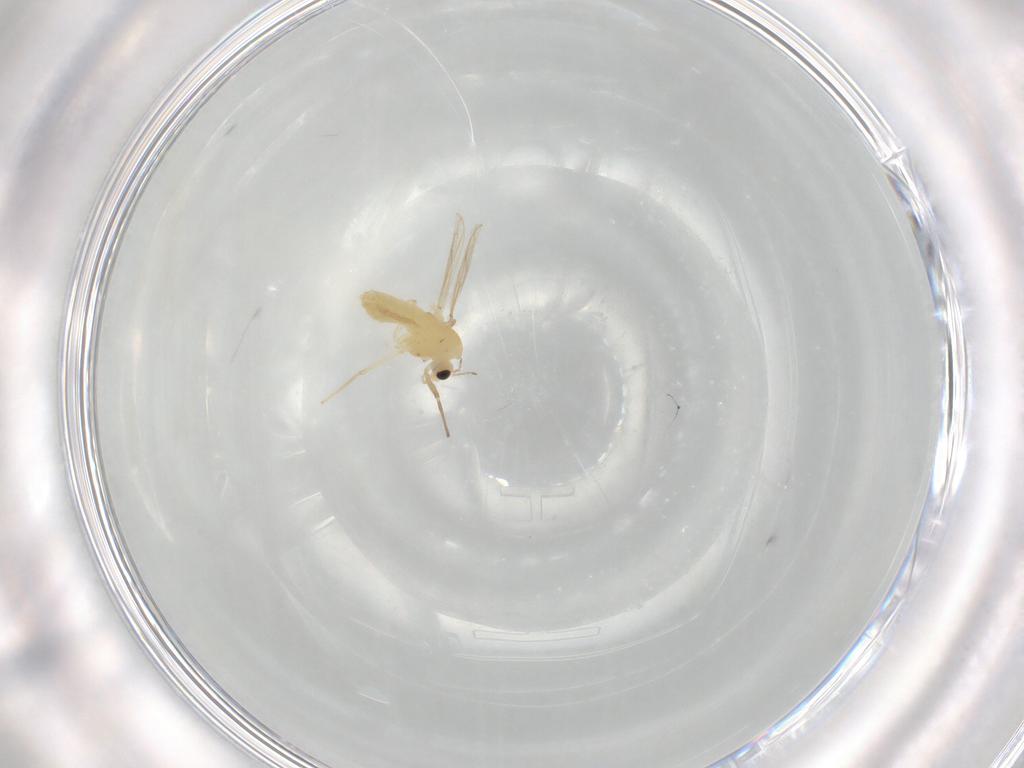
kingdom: Animalia
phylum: Arthropoda
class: Insecta
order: Diptera
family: Chironomidae
